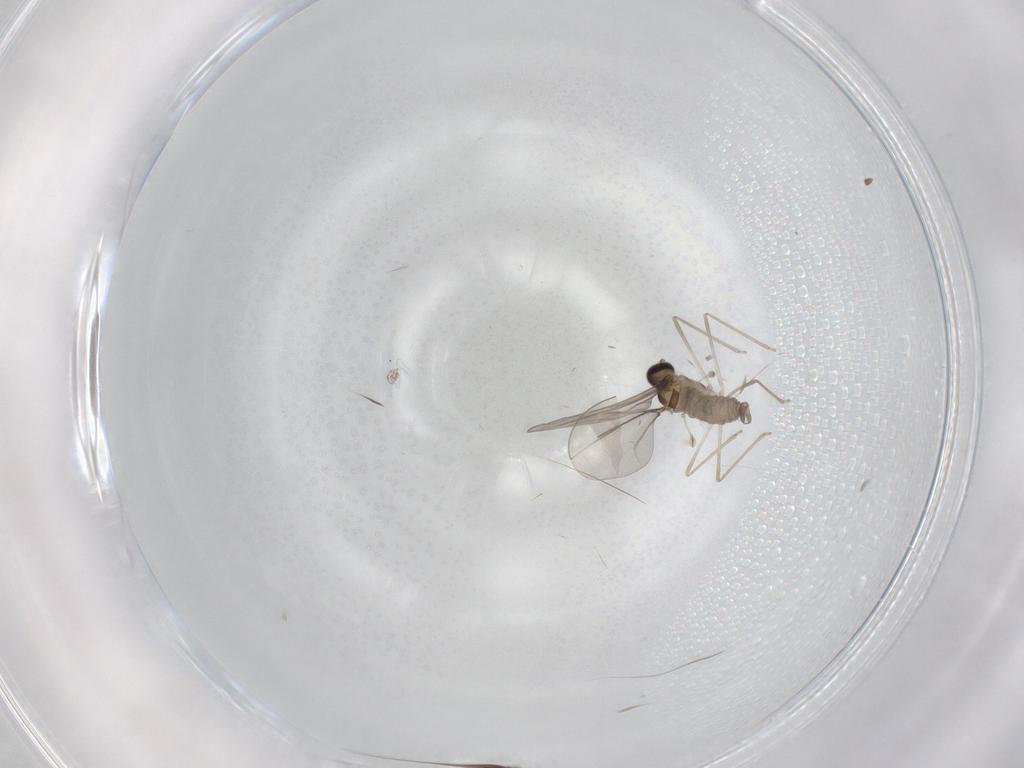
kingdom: Animalia
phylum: Arthropoda
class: Insecta
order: Diptera
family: Cecidomyiidae
